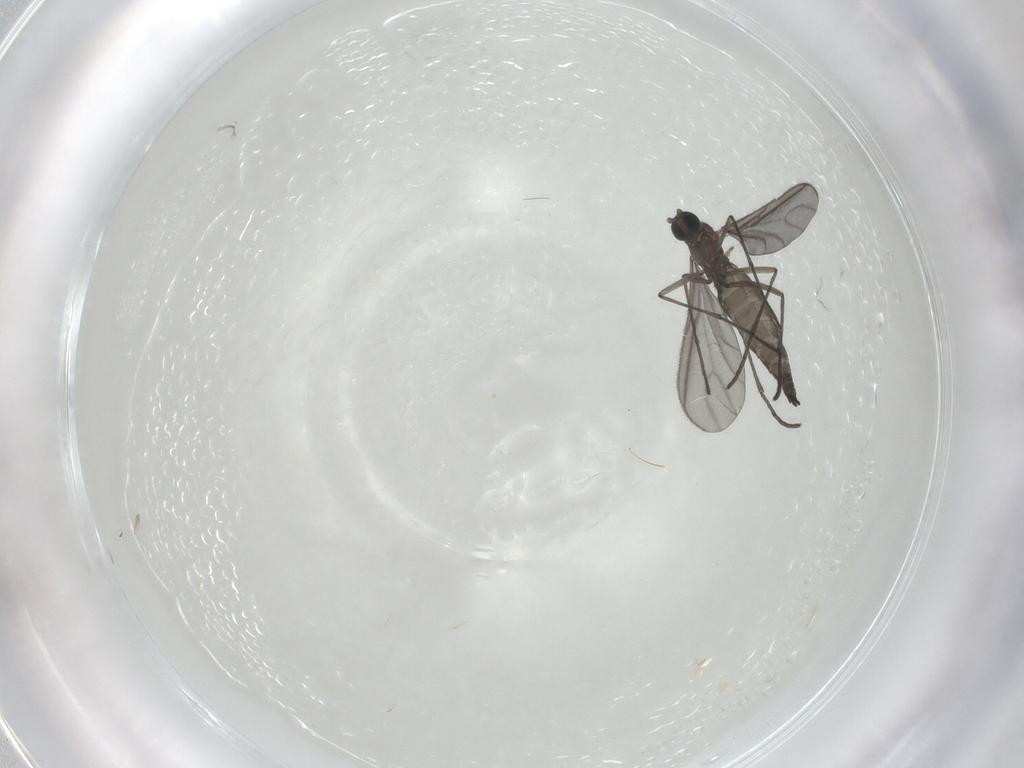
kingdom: Animalia
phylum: Arthropoda
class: Insecta
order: Diptera
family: Sciaridae
